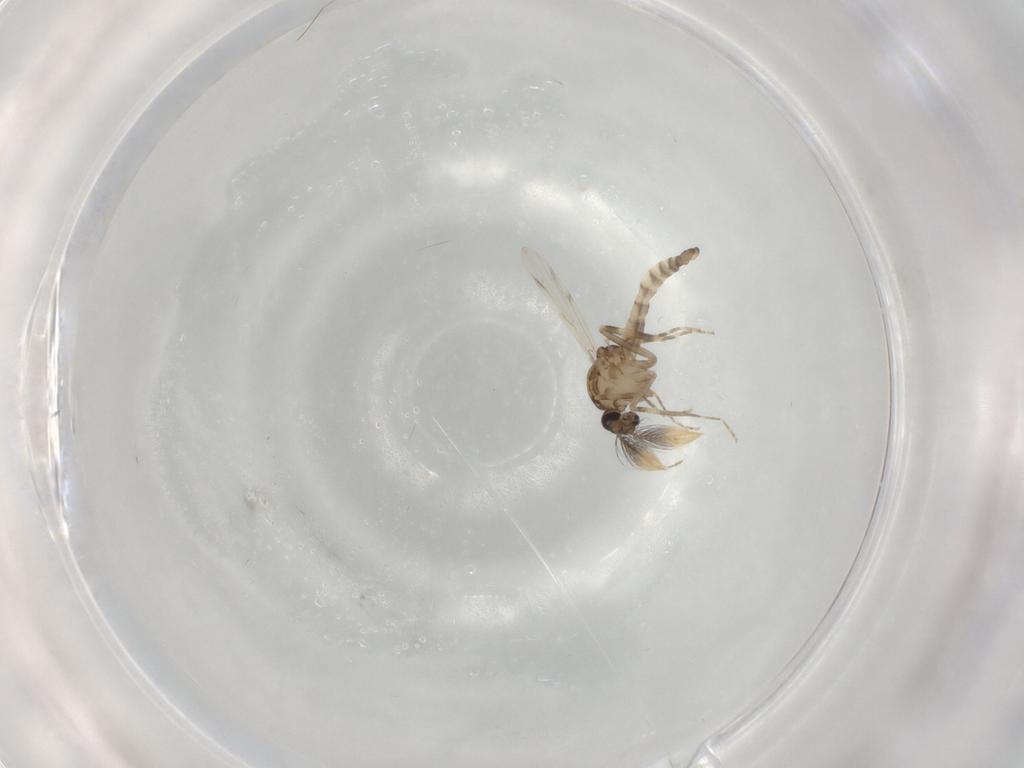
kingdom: Animalia
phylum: Arthropoda
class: Insecta
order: Diptera
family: Ceratopogonidae
